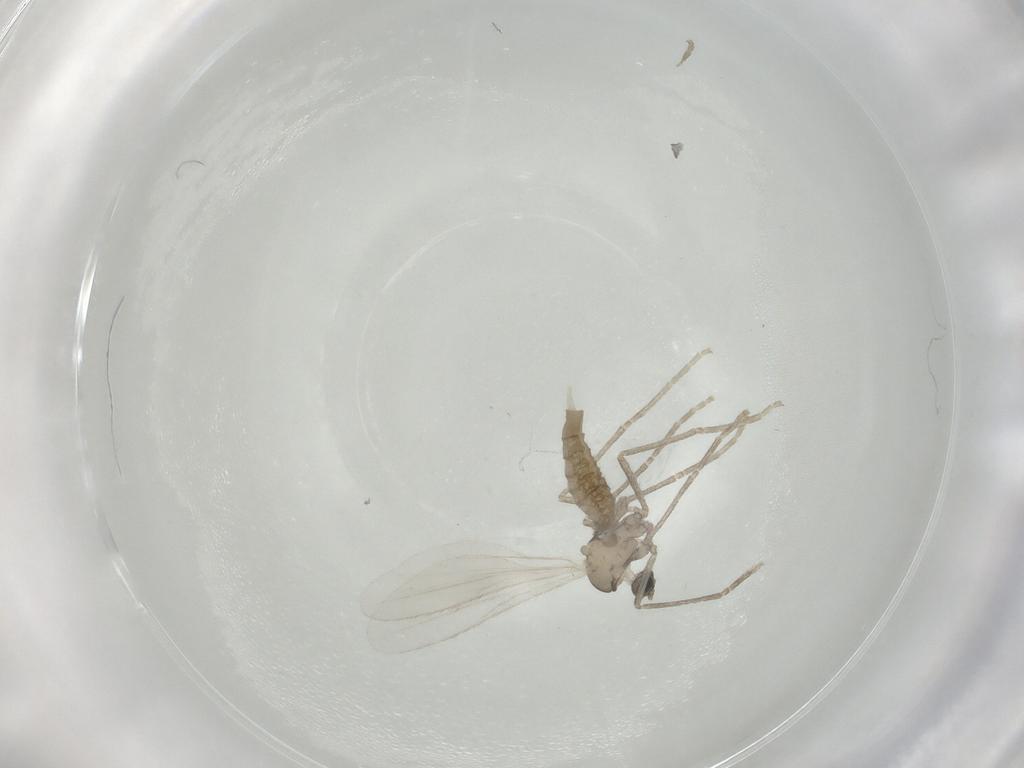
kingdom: Animalia
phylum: Arthropoda
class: Insecta
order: Diptera
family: Cecidomyiidae
